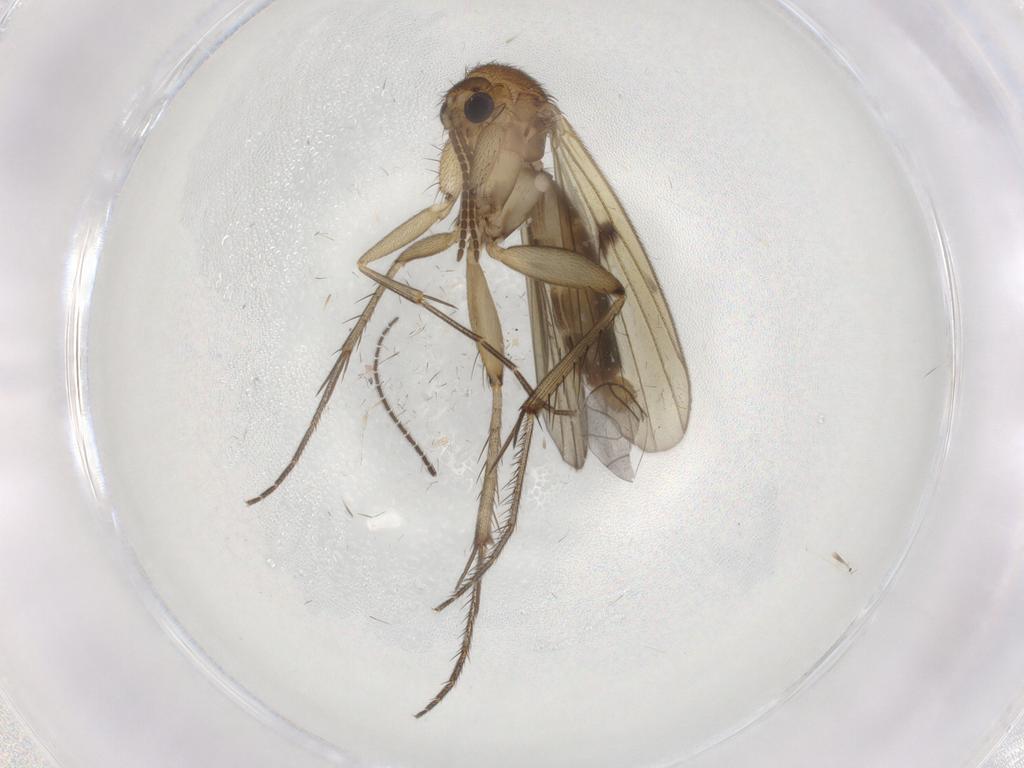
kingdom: Animalia
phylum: Arthropoda
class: Insecta
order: Diptera
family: Mycetophilidae
